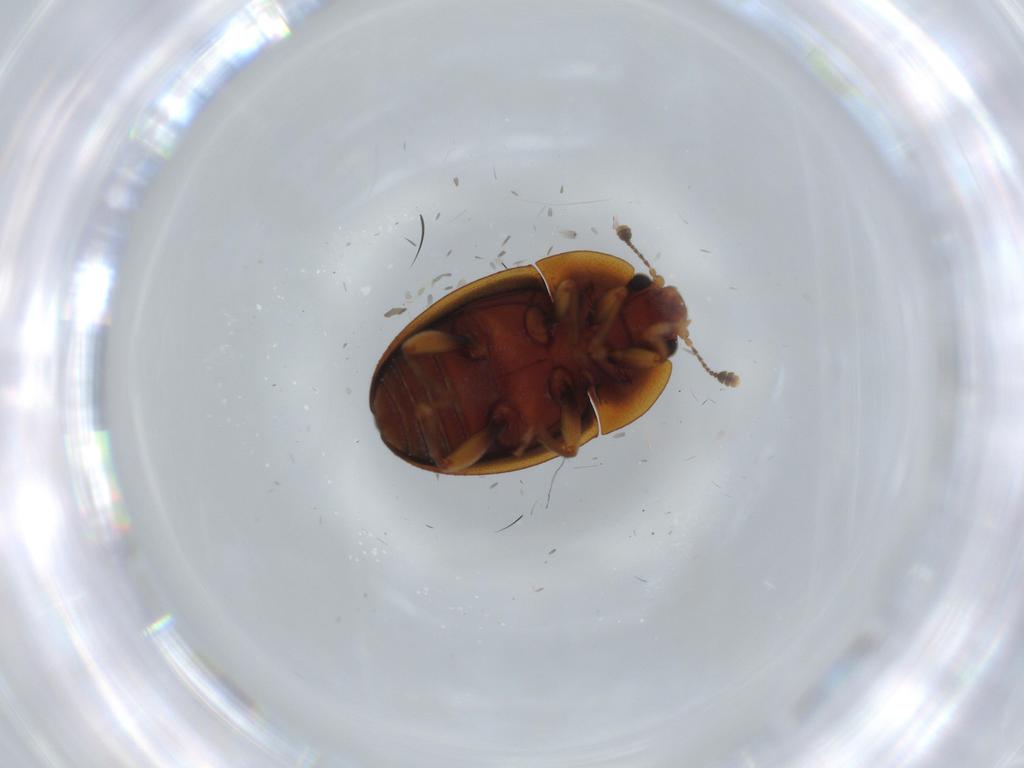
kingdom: Animalia
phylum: Arthropoda
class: Insecta
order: Coleoptera
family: Nitidulidae
